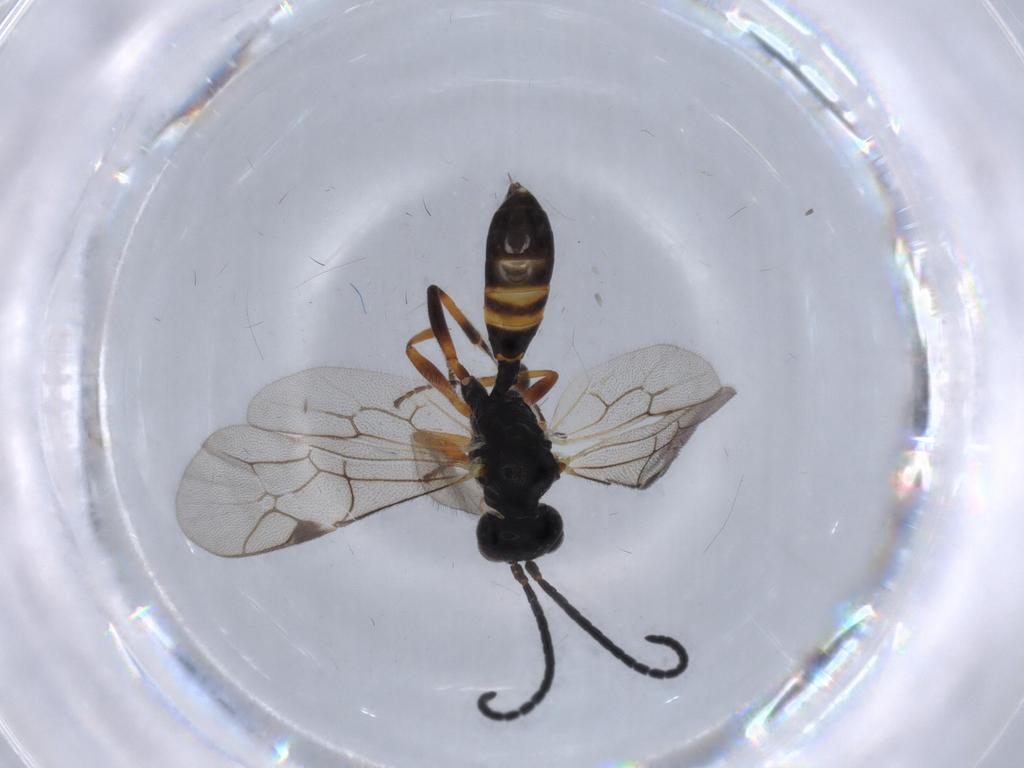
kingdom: Animalia
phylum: Arthropoda
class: Insecta
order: Hymenoptera
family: Ichneumonidae
